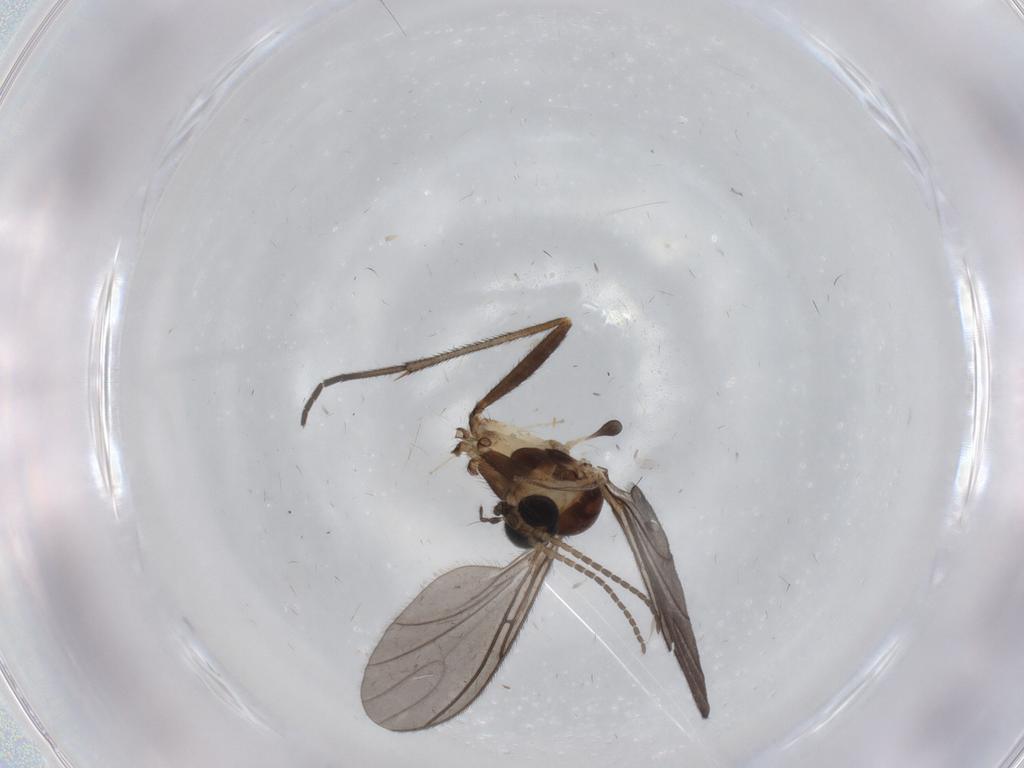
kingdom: Animalia
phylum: Arthropoda
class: Insecta
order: Diptera
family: Sciaridae
